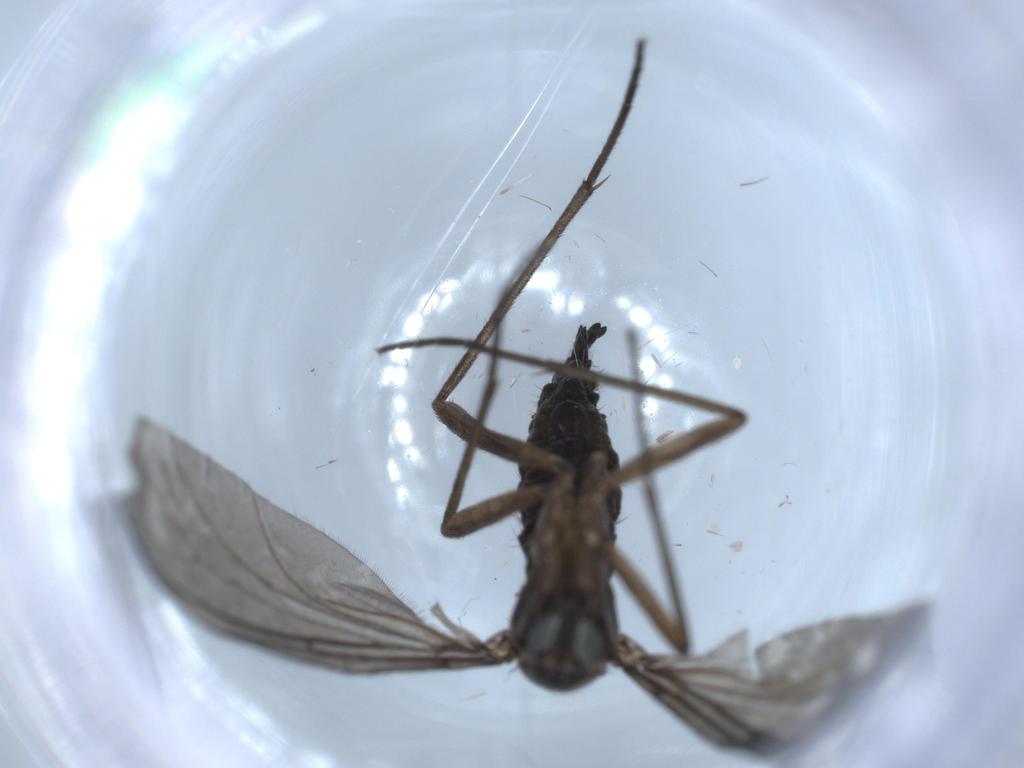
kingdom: Animalia
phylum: Arthropoda
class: Insecta
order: Diptera
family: Sciaridae
